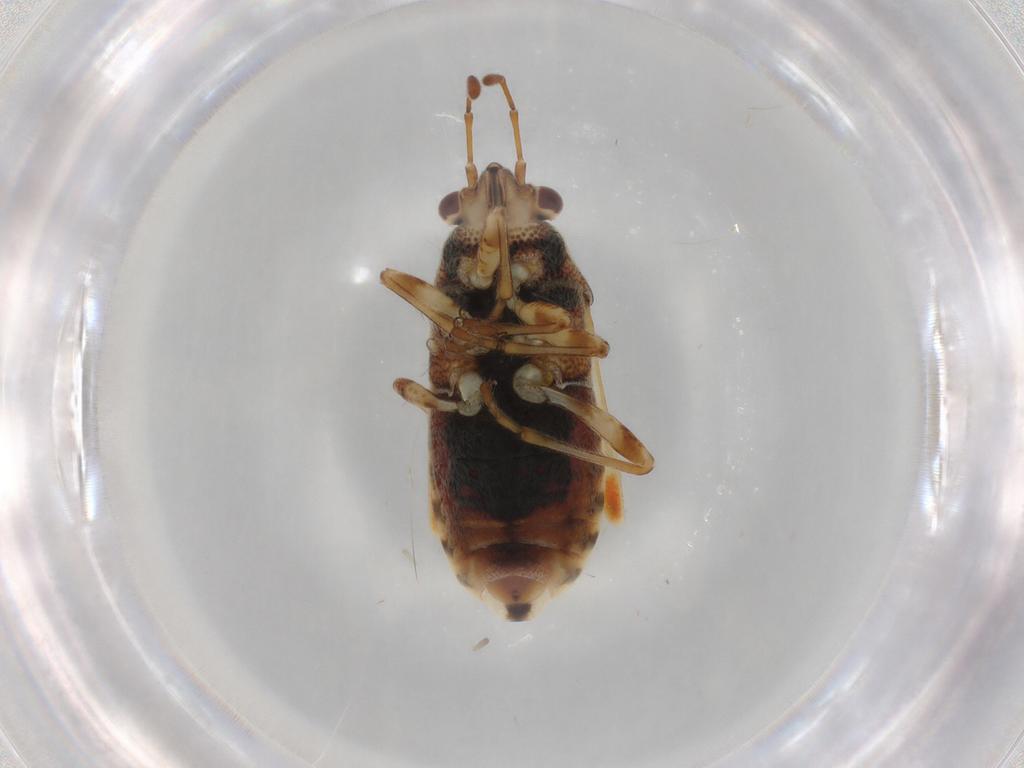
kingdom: Animalia
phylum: Arthropoda
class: Insecta
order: Hemiptera
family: Lygaeidae
